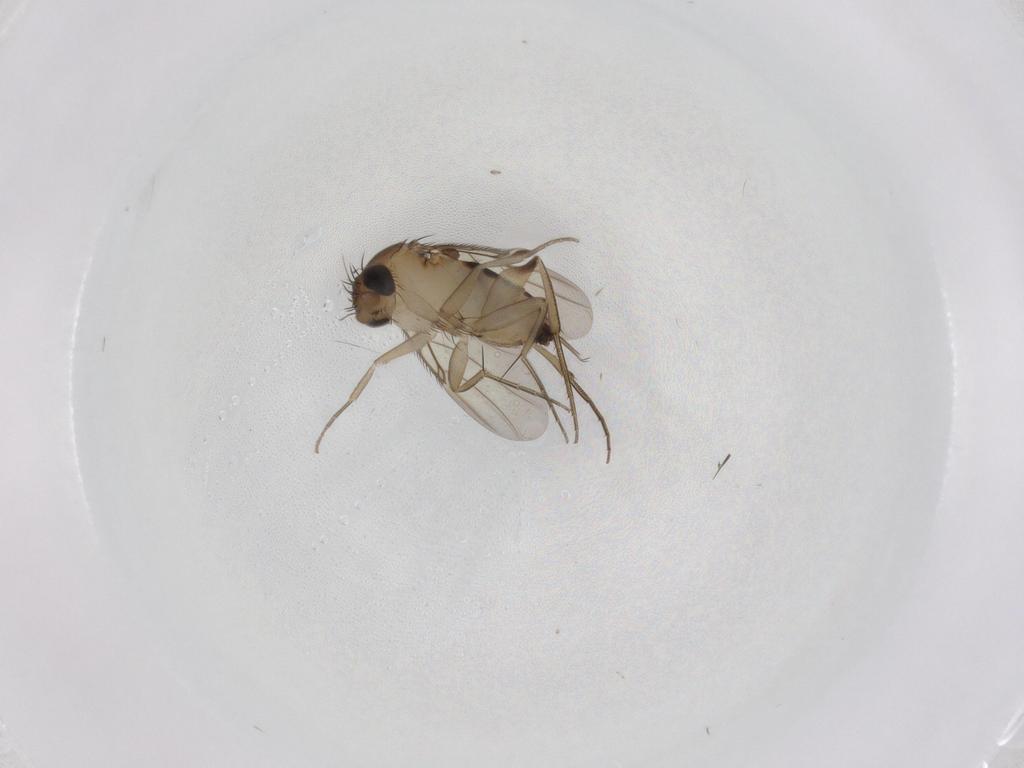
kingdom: Animalia
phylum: Arthropoda
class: Insecta
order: Diptera
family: Phoridae
